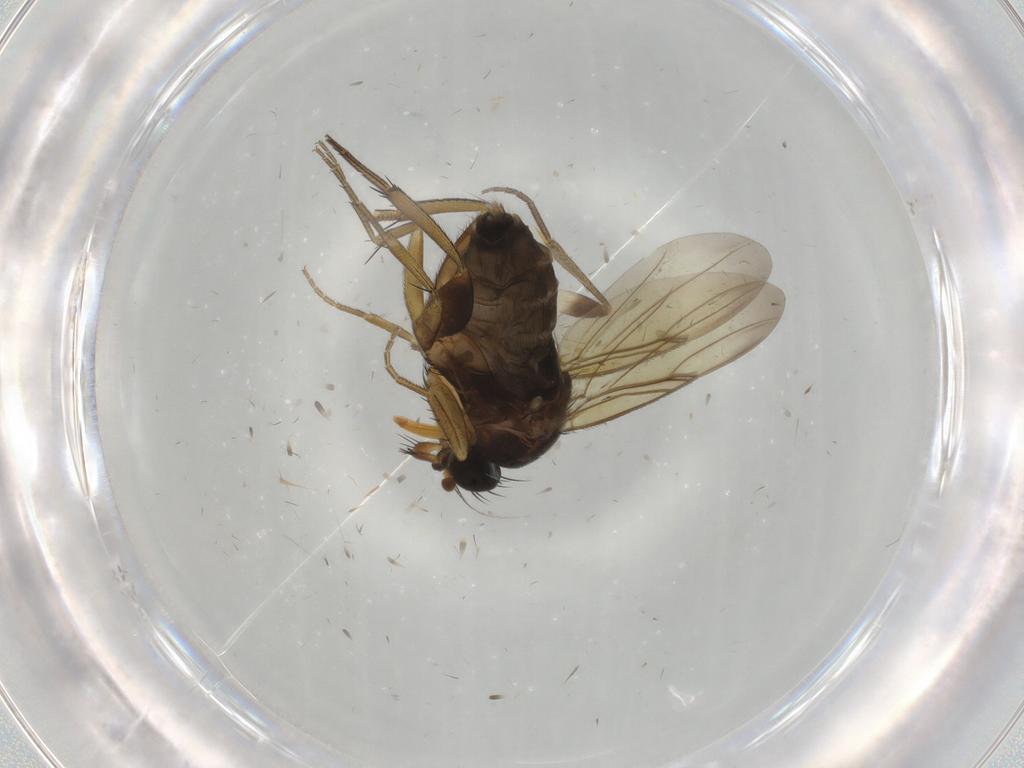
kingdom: Animalia
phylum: Arthropoda
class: Insecta
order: Diptera
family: Phoridae
